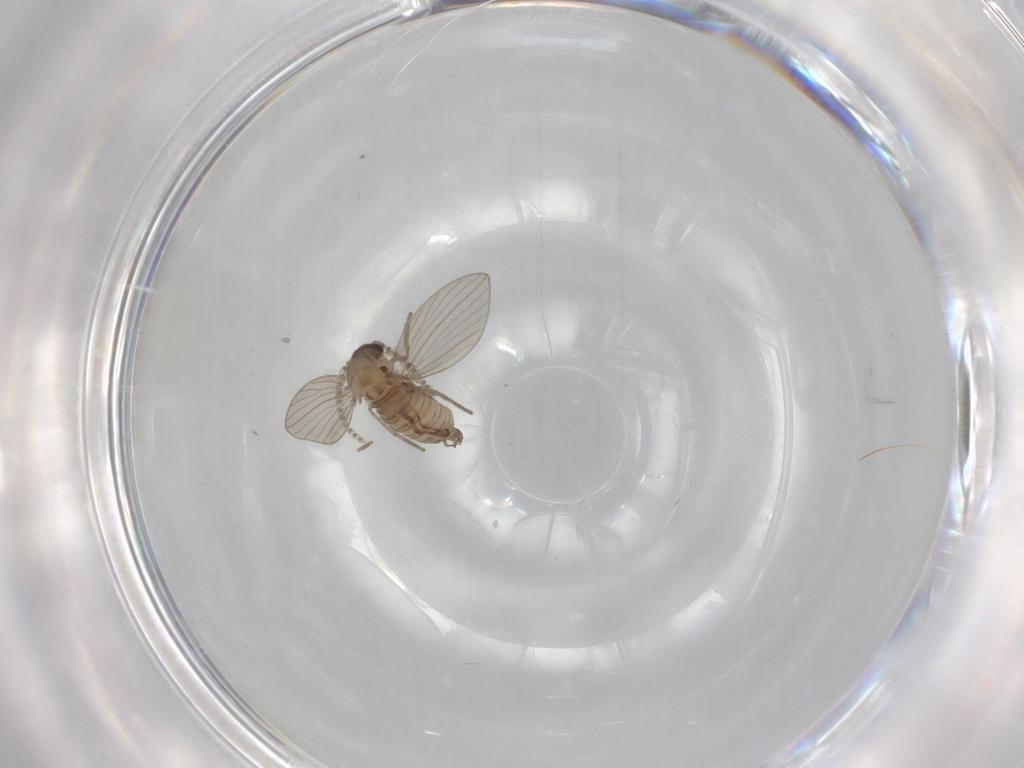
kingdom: Animalia
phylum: Arthropoda
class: Insecta
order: Diptera
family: Psychodidae
